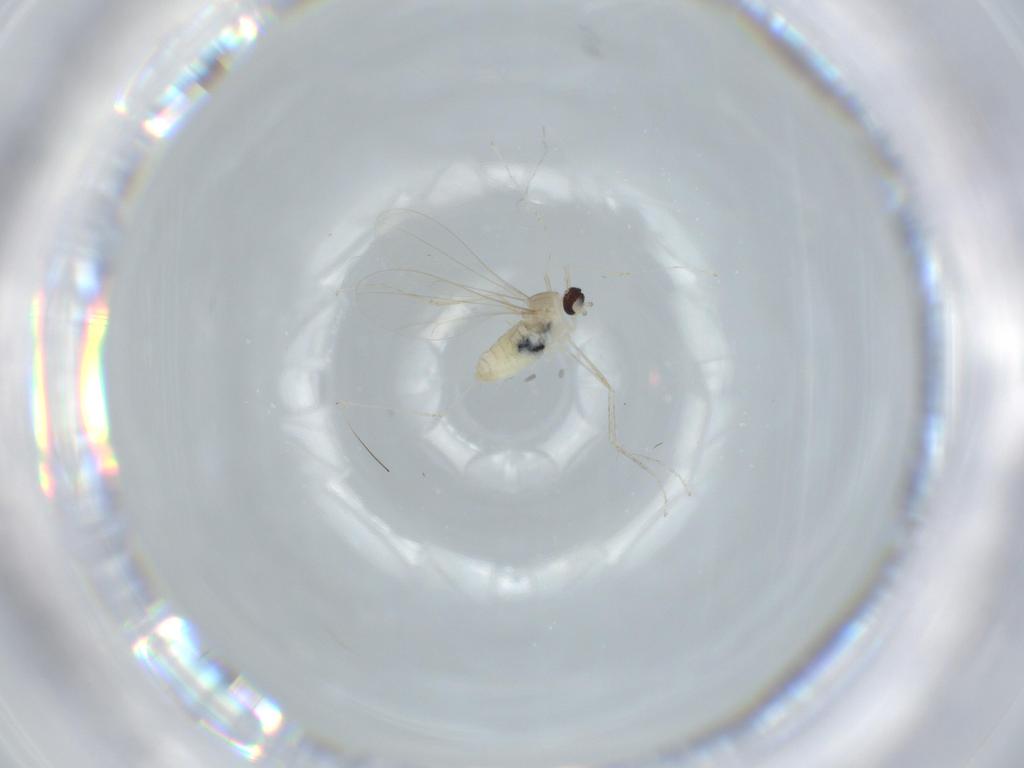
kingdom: Animalia
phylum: Arthropoda
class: Insecta
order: Diptera
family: Cecidomyiidae
